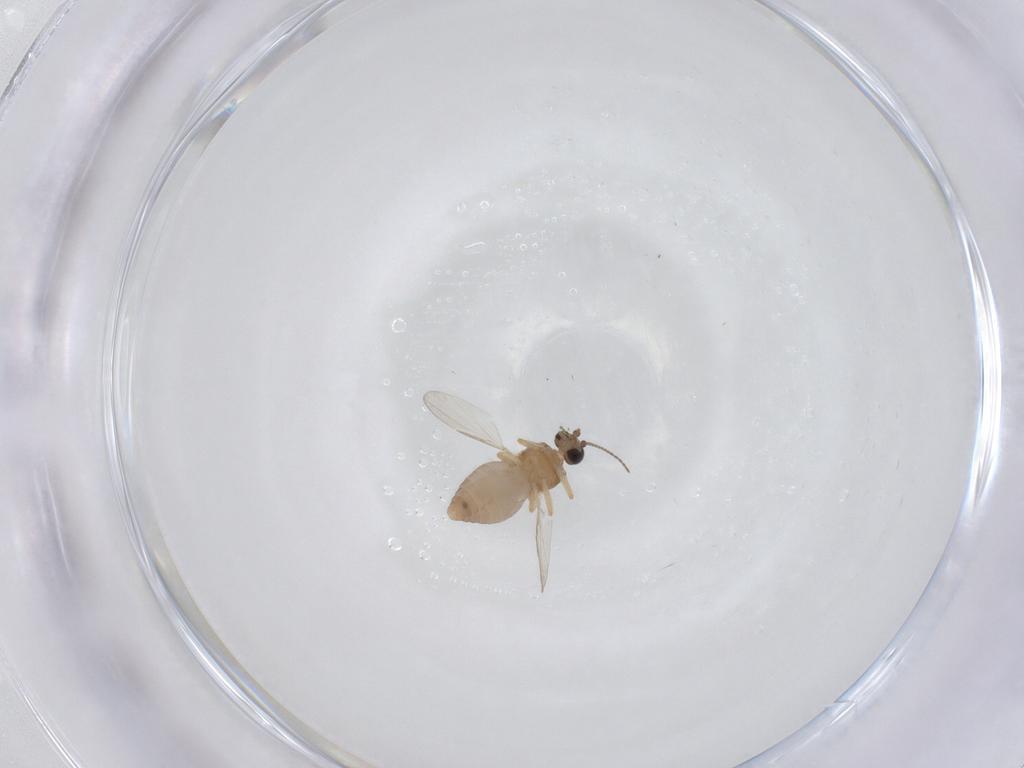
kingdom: Animalia
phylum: Arthropoda
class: Insecta
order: Diptera
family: Ceratopogonidae
